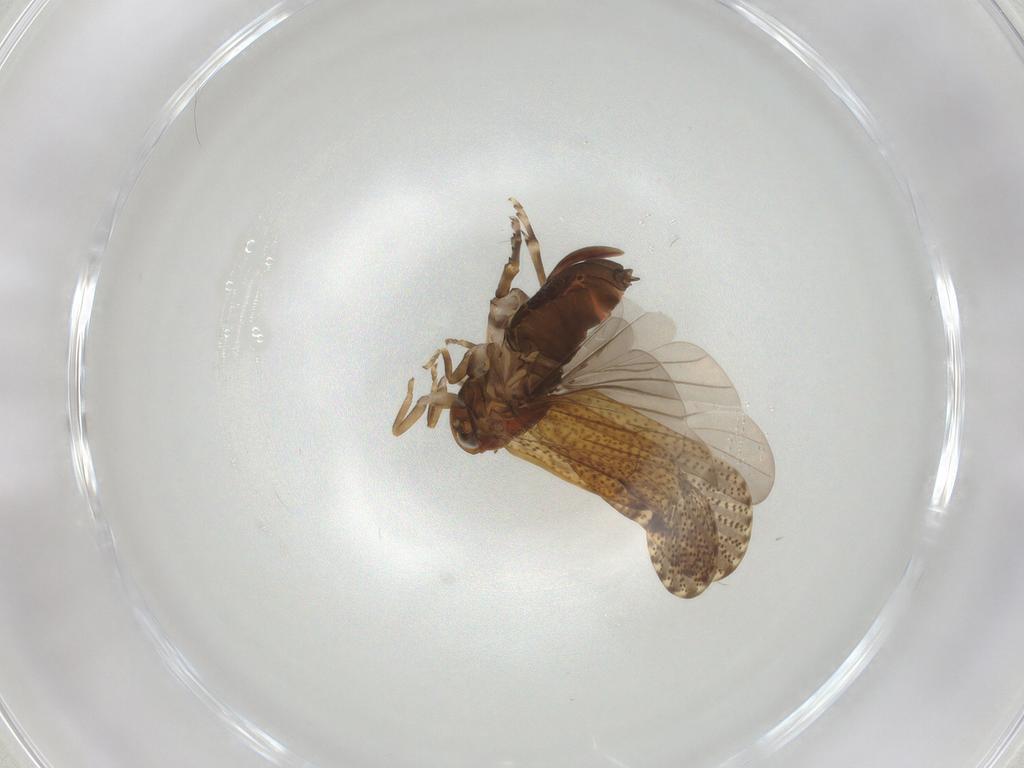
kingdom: Animalia
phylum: Arthropoda
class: Insecta
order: Hemiptera
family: Delphacidae
